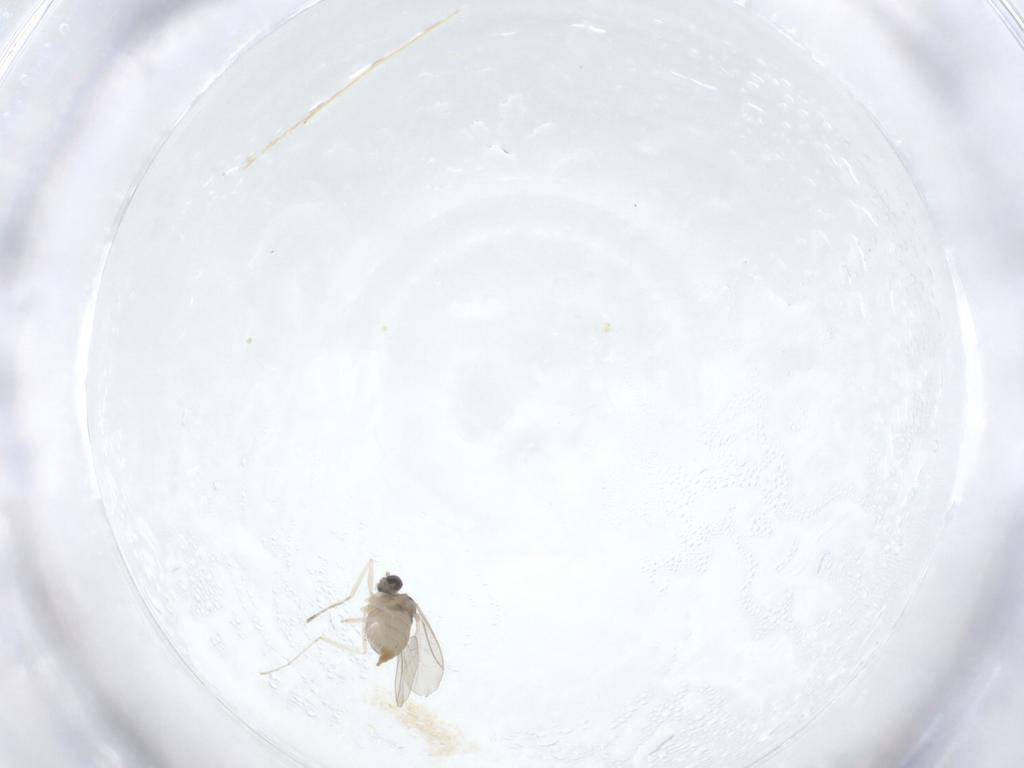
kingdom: Animalia
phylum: Arthropoda
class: Insecta
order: Diptera
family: Cecidomyiidae
